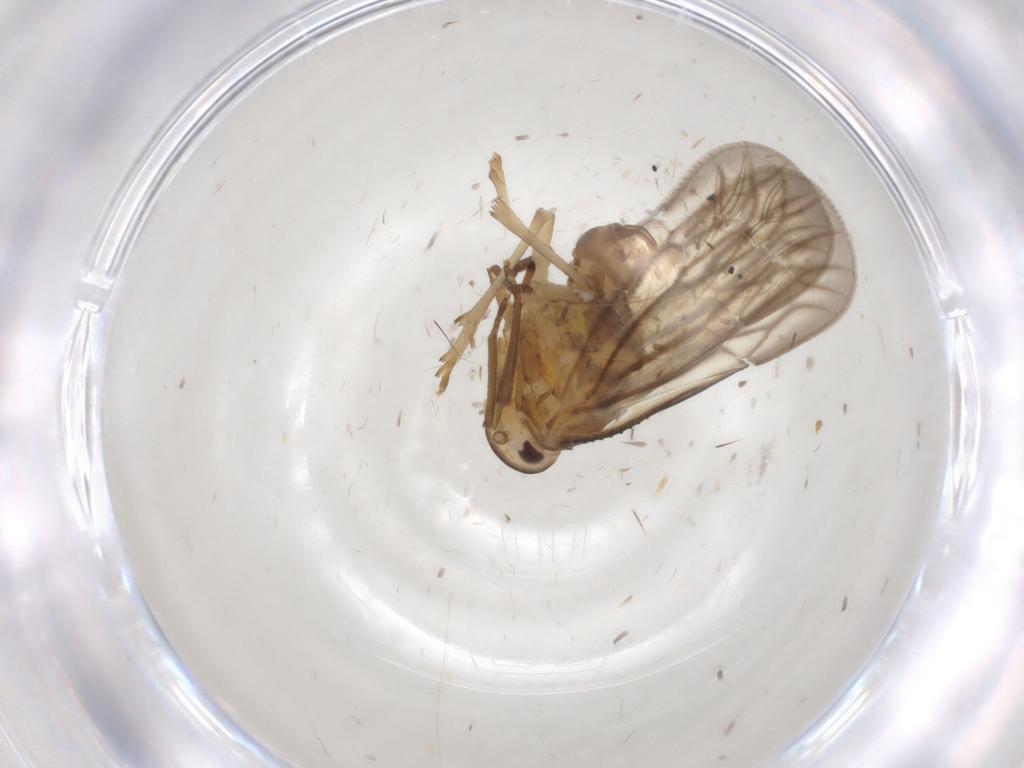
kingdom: Animalia
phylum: Arthropoda
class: Insecta
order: Hemiptera
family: Meenoplidae
